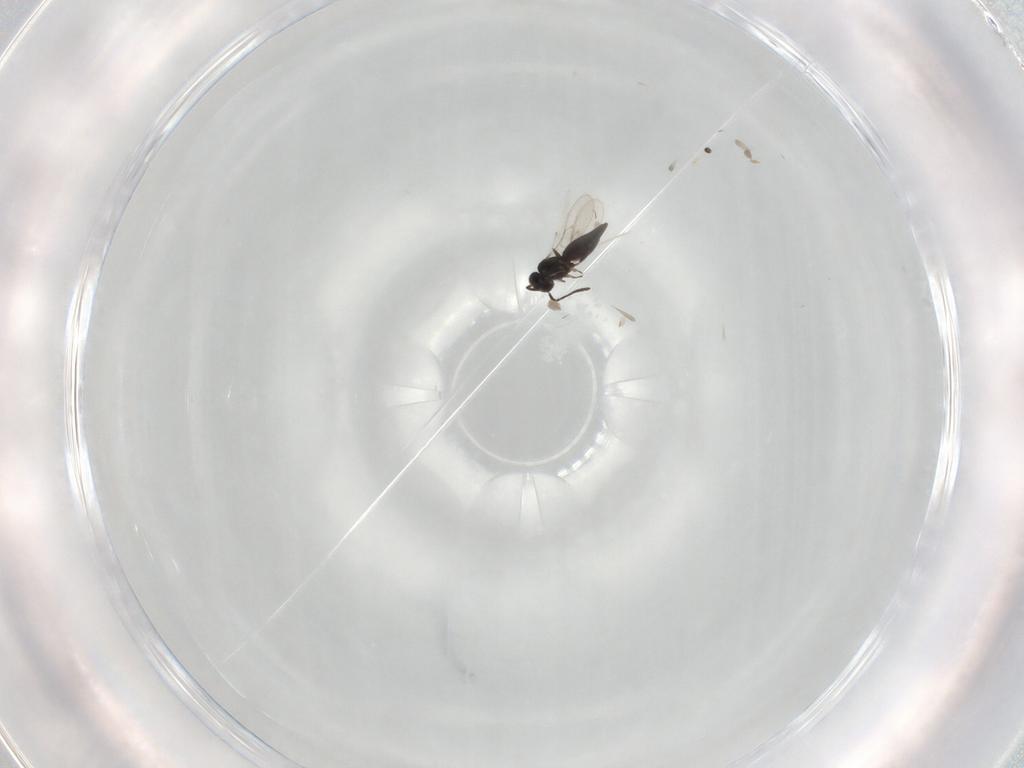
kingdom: Animalia
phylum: Arthropoda
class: Insecta
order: Hymenoptera
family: Scelionidae
